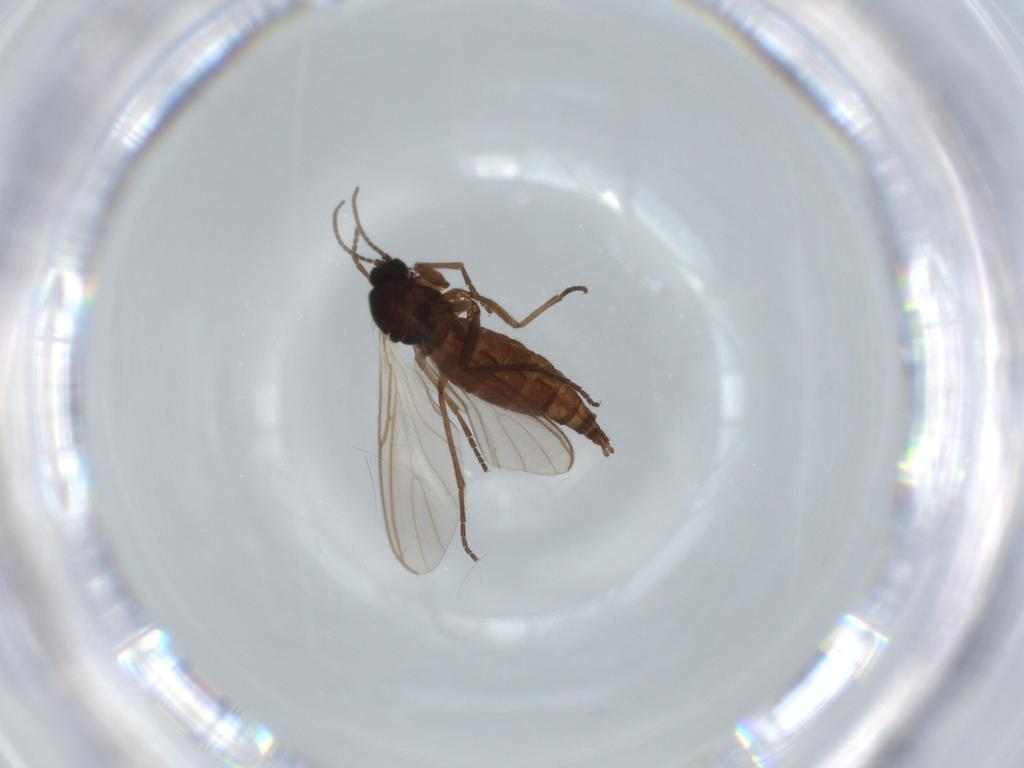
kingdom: Animalia
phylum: Arthropoda
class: Insecta
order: Diptera
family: Sciaridae
